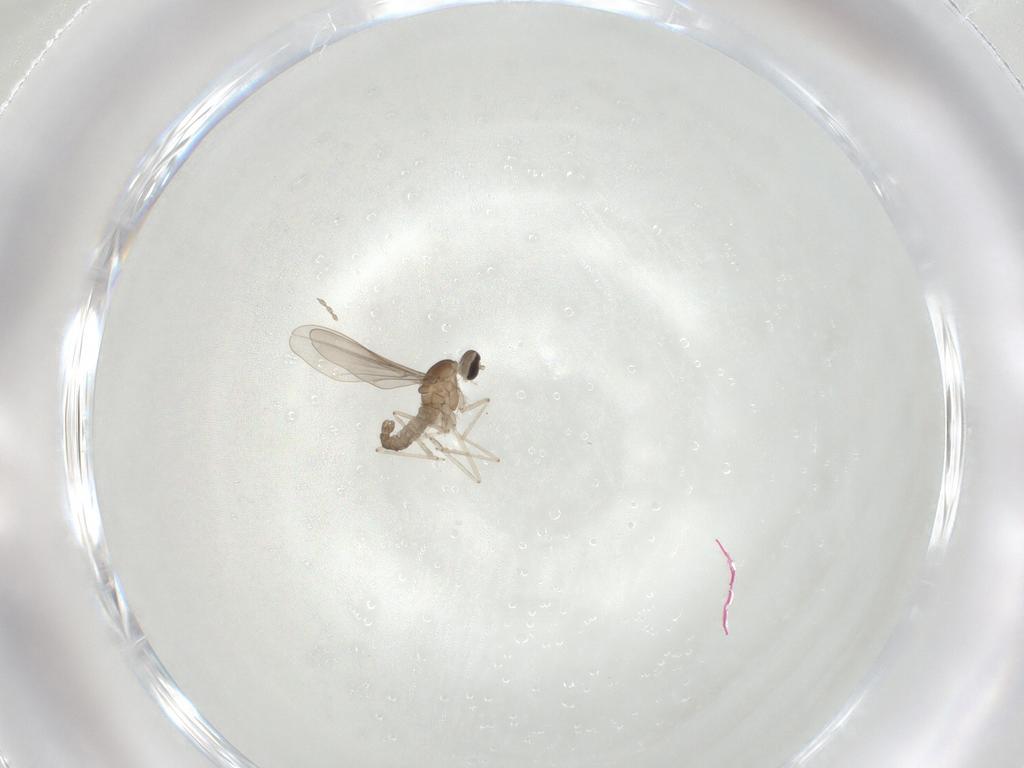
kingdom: Animalia
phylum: Arthropoda
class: Insecta
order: Diptera
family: Cecidomyiidae
